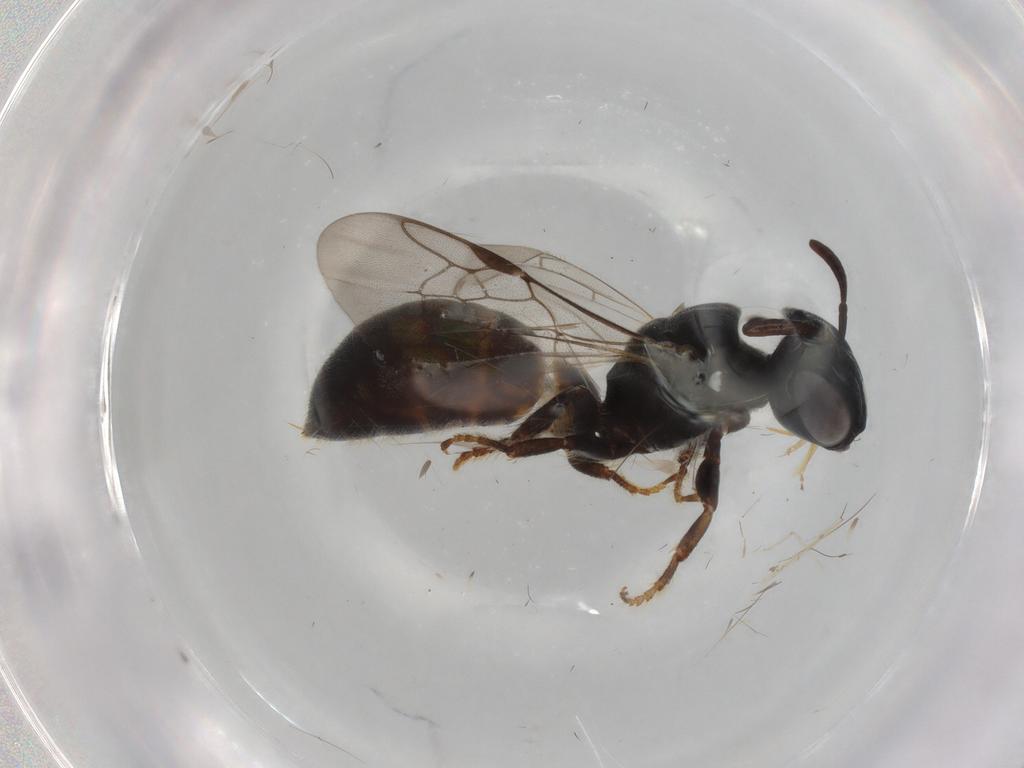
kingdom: Animalia
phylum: Arthropoda
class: Insecta
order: Hymenoptera
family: Apidae
